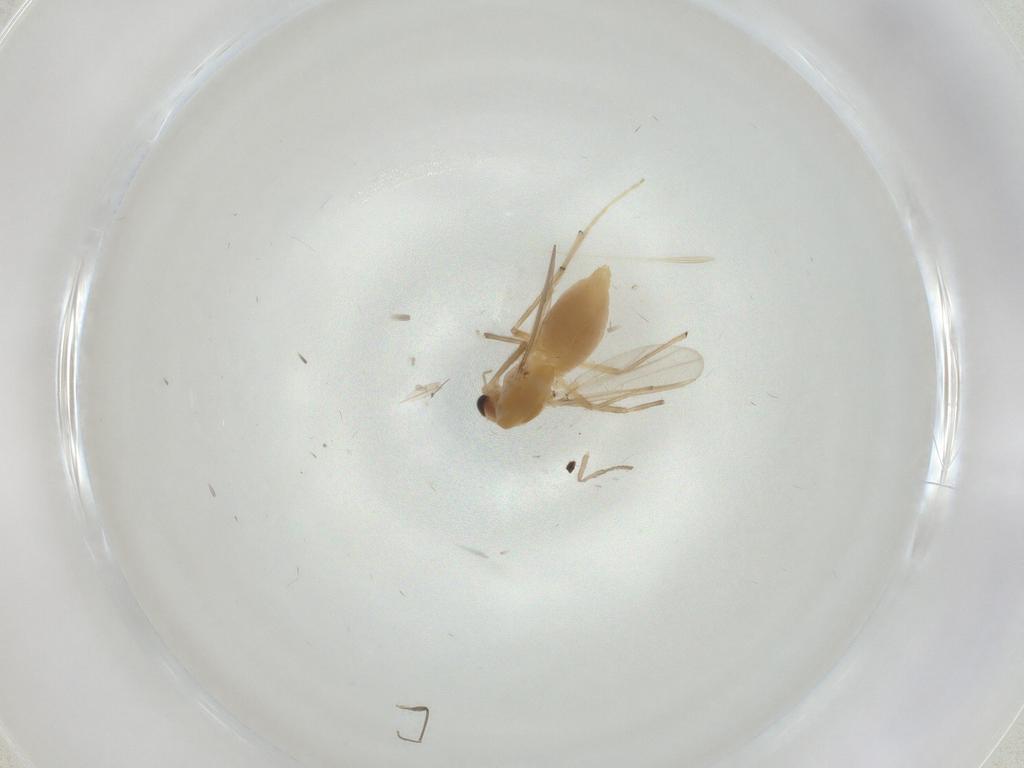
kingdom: Animalia
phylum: Arthropoda
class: Insecta
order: Diptera
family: Chironomidae
